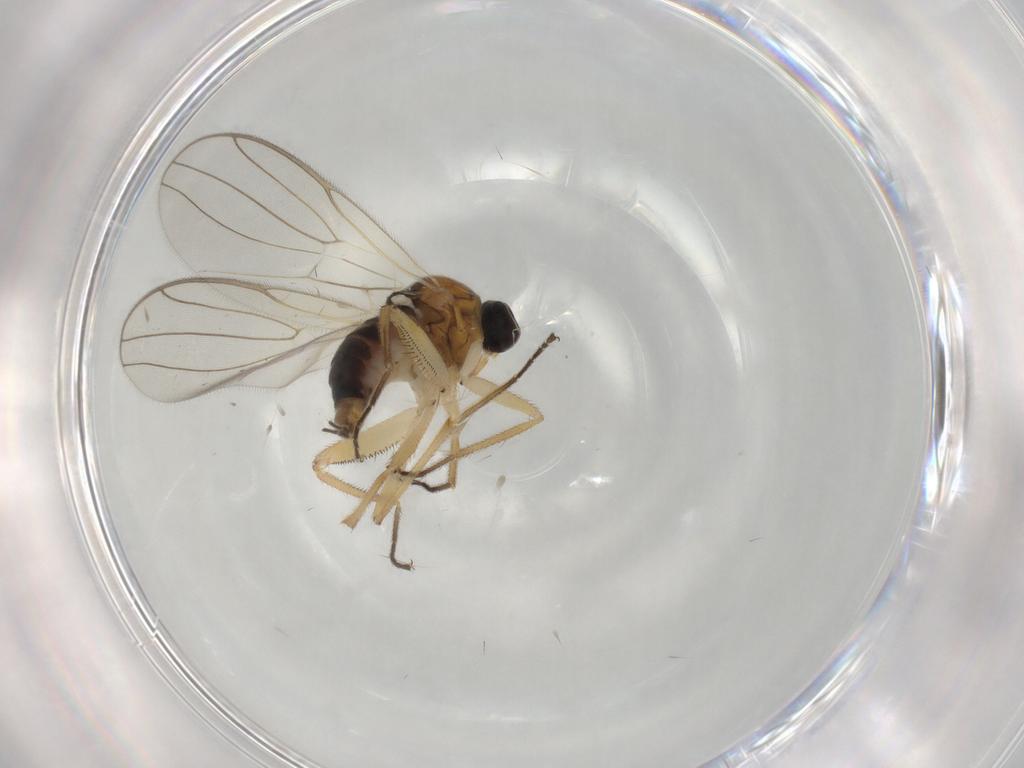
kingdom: Animalia
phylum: Arthropoda
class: Insecta
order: Diptera
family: Hybotidae
